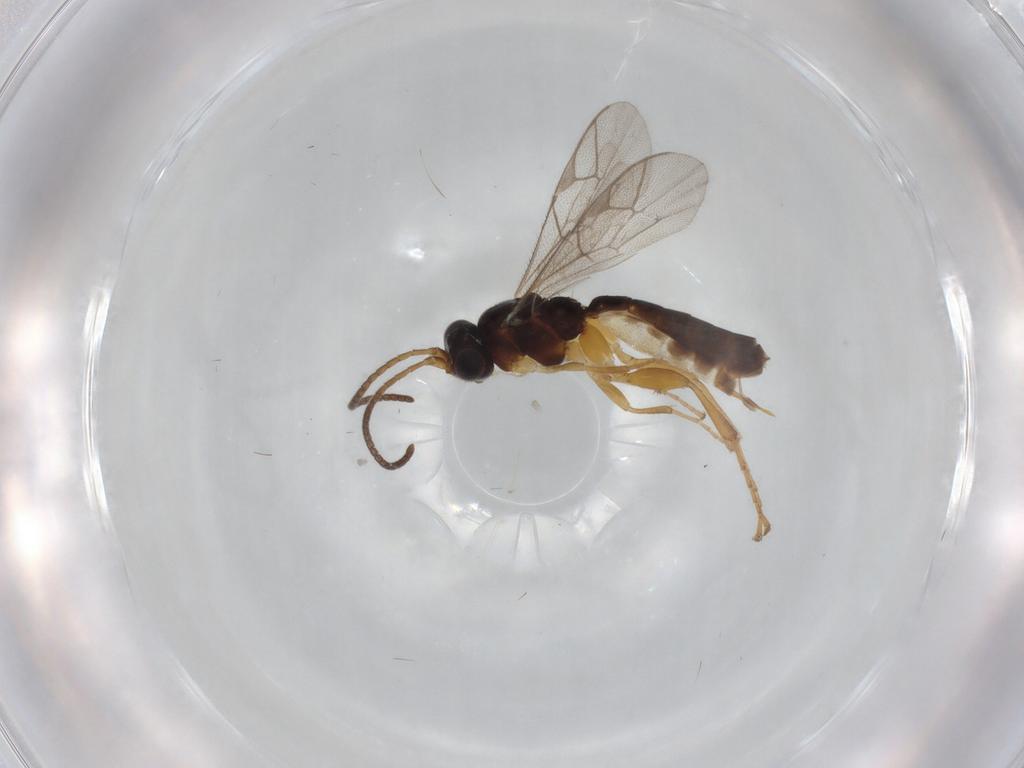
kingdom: Animalia
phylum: Arthropoda
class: Insecta
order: Hymenoptera
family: Ichneumonidae
